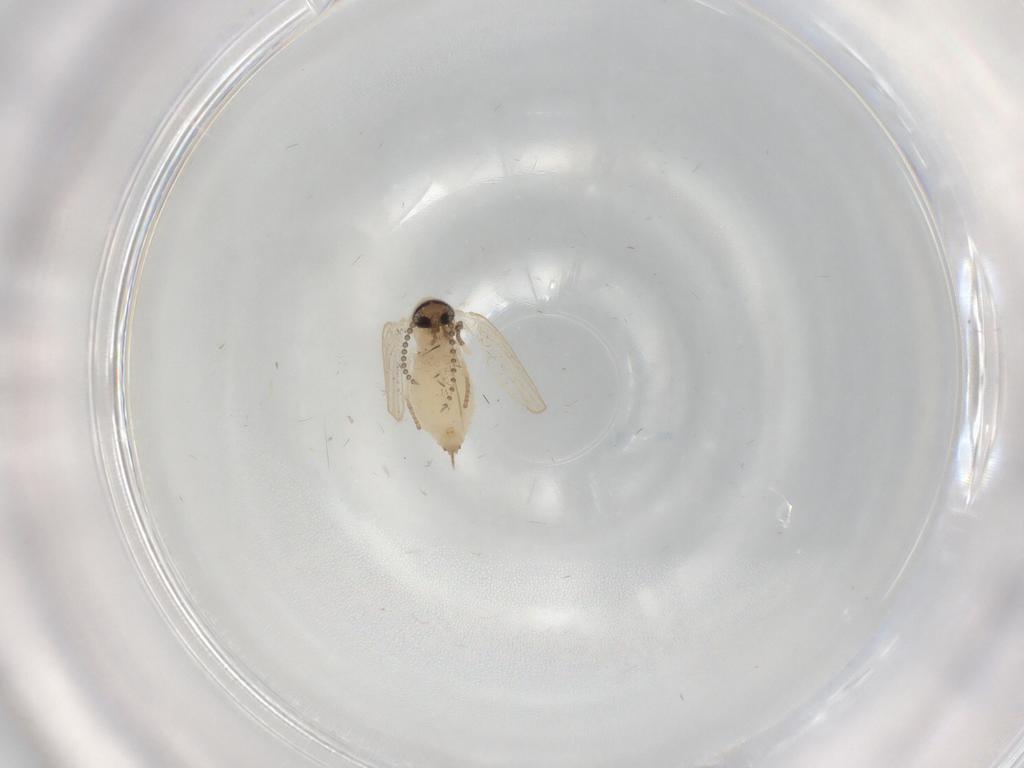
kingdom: Animalia
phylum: Arthropoda
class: Insecta
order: Diptera
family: Psychodidae
